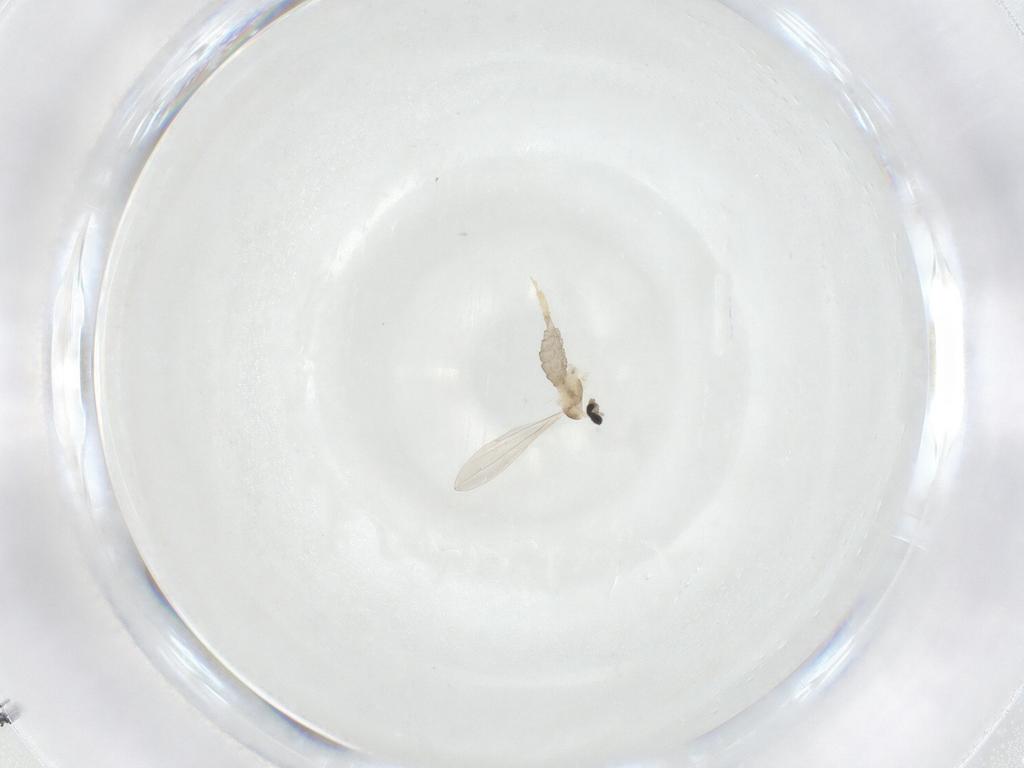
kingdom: Animalia
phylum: Arthropoda
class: Insecta
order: Diptera
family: Cecidomyiidae
